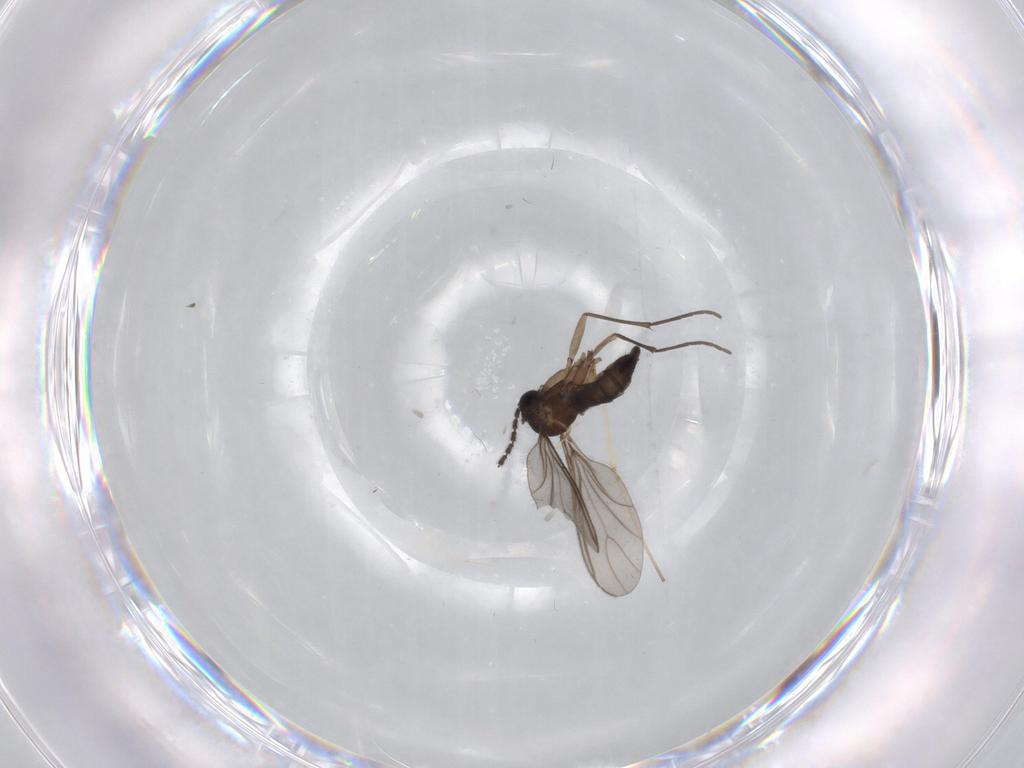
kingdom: Animalia
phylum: Arthropoda
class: Insecta
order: Diptera
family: Sciaridae
